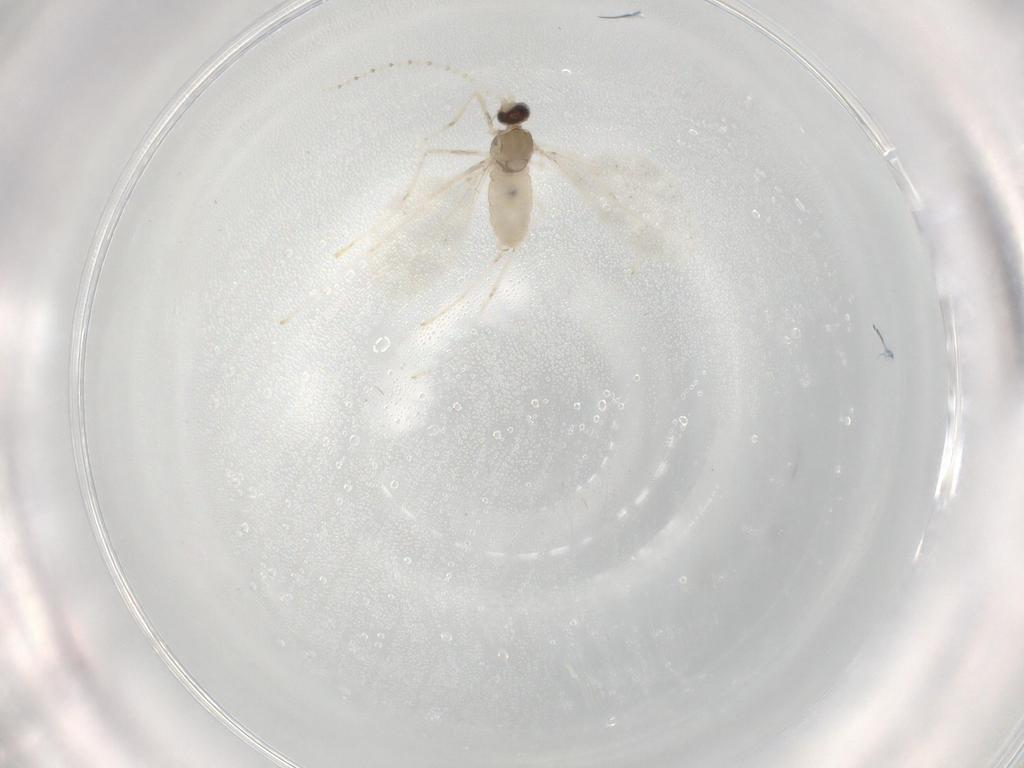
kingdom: Animalia
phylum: Arthropoda
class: Insecta
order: Diptera
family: Cecidomyiidae
